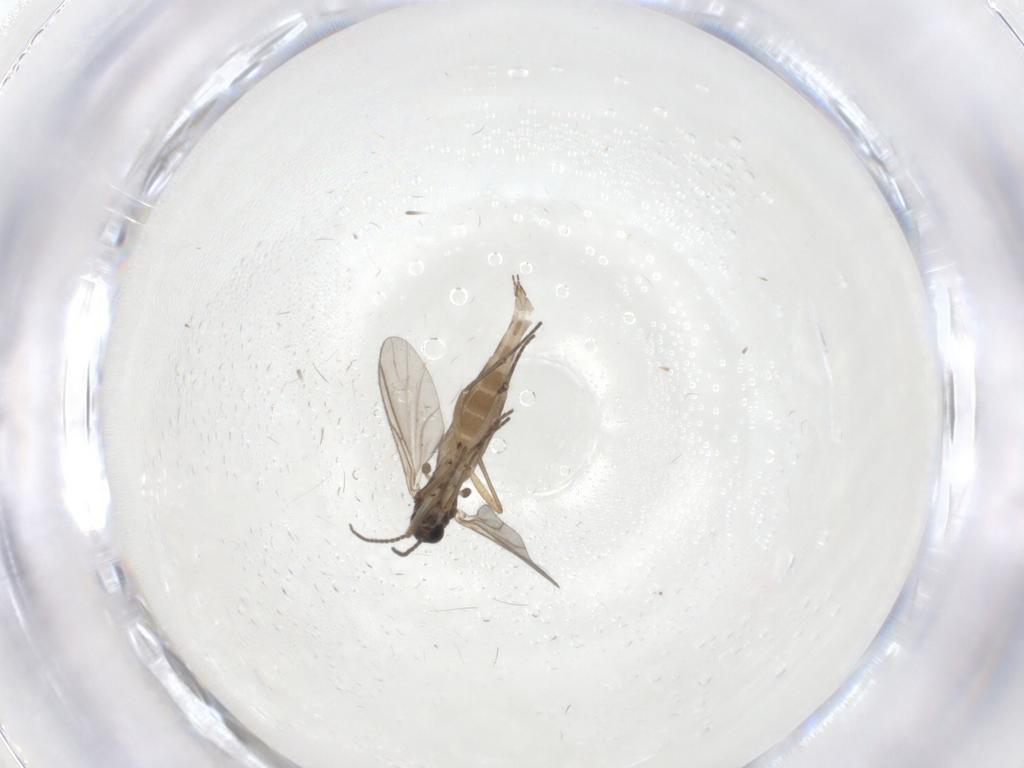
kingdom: Animalia
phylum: Arthropoda
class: Insecta
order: Diptera
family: Sciaridae
